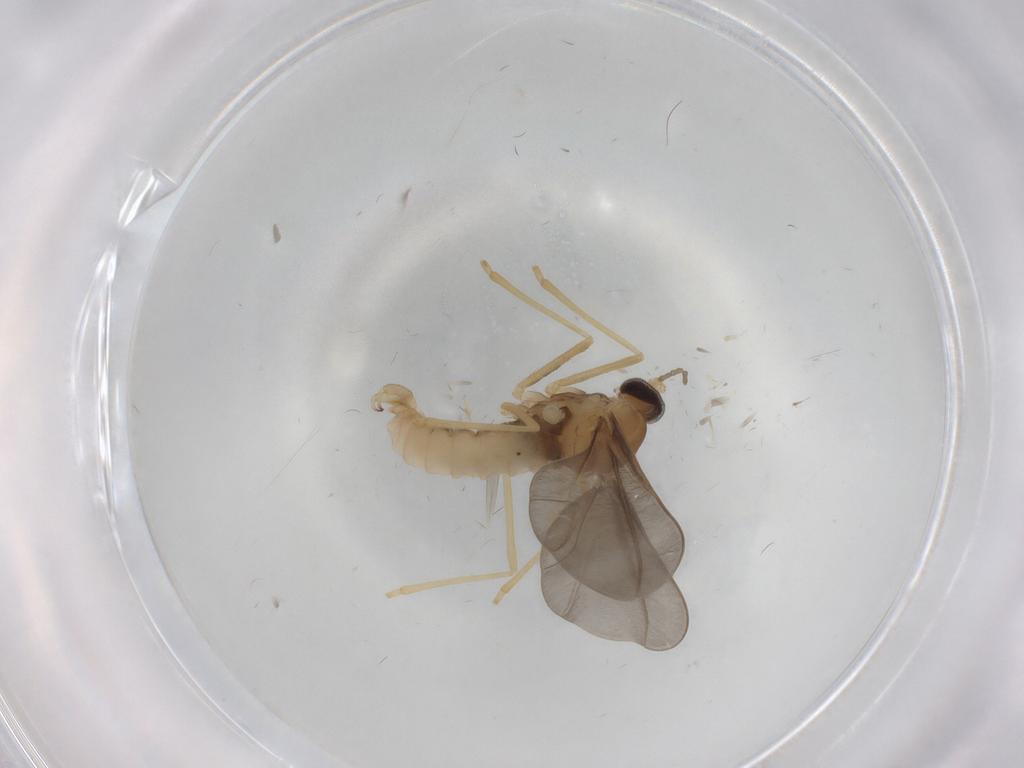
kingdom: Animalia
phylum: Arthropoda
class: Insecta
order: Diptera
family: Cecidomyiidae
